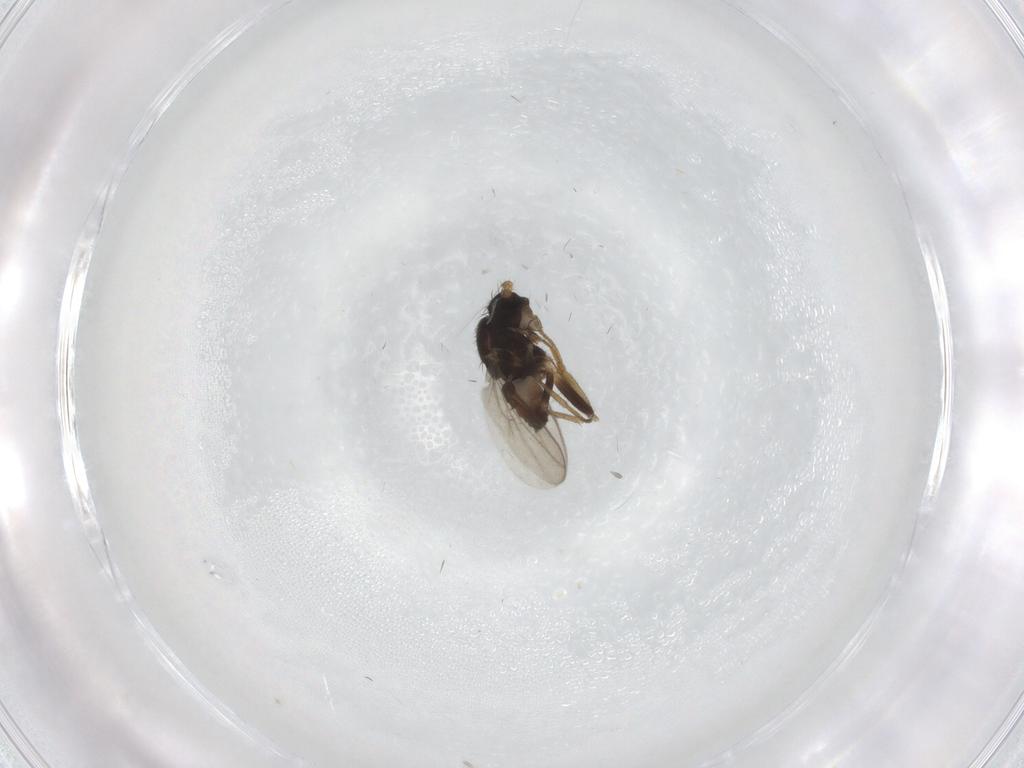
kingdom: Animalia
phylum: Arthropoda
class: Insecta
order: Diptera
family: Sphaeroceridae
